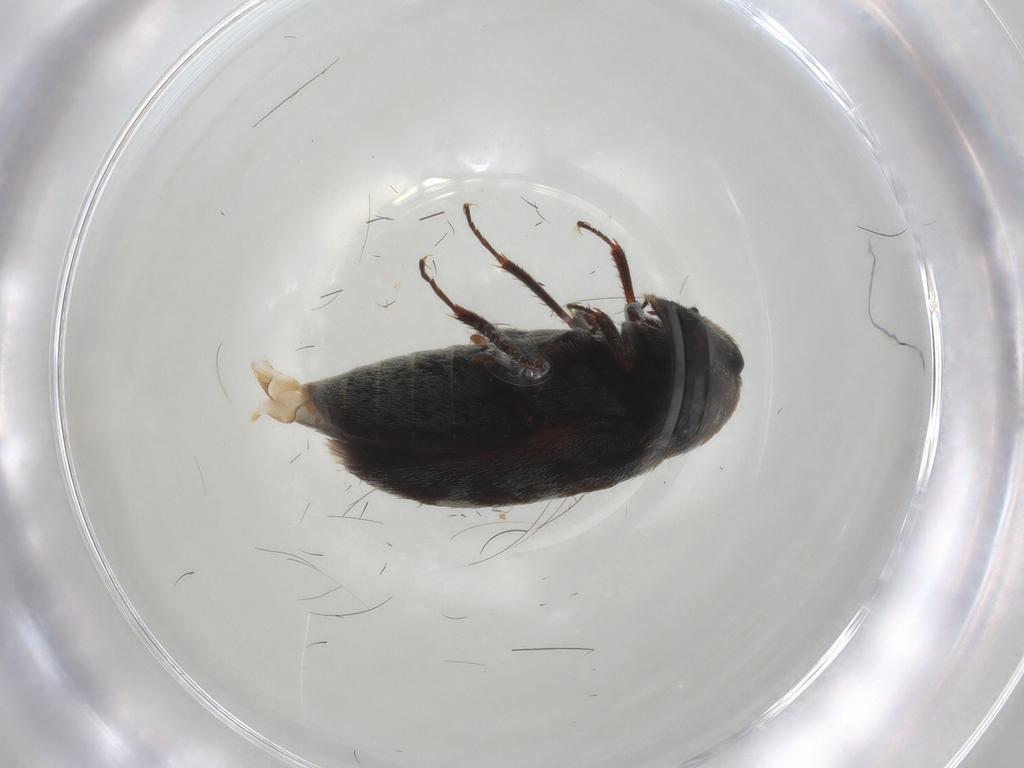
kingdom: Animalia
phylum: Arthropoda
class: Insecta
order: Coleoptera
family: Dermestidae
